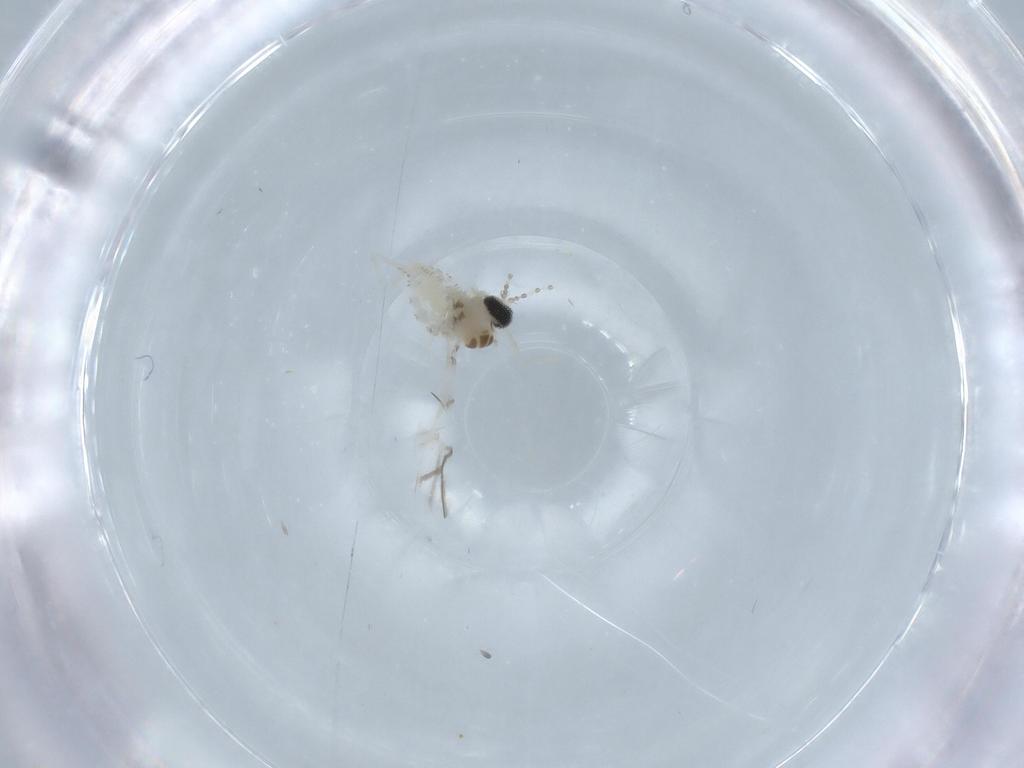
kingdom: Animalia
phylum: Arthropoda
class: Insecta
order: Diptera
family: Cecidomyiidae
